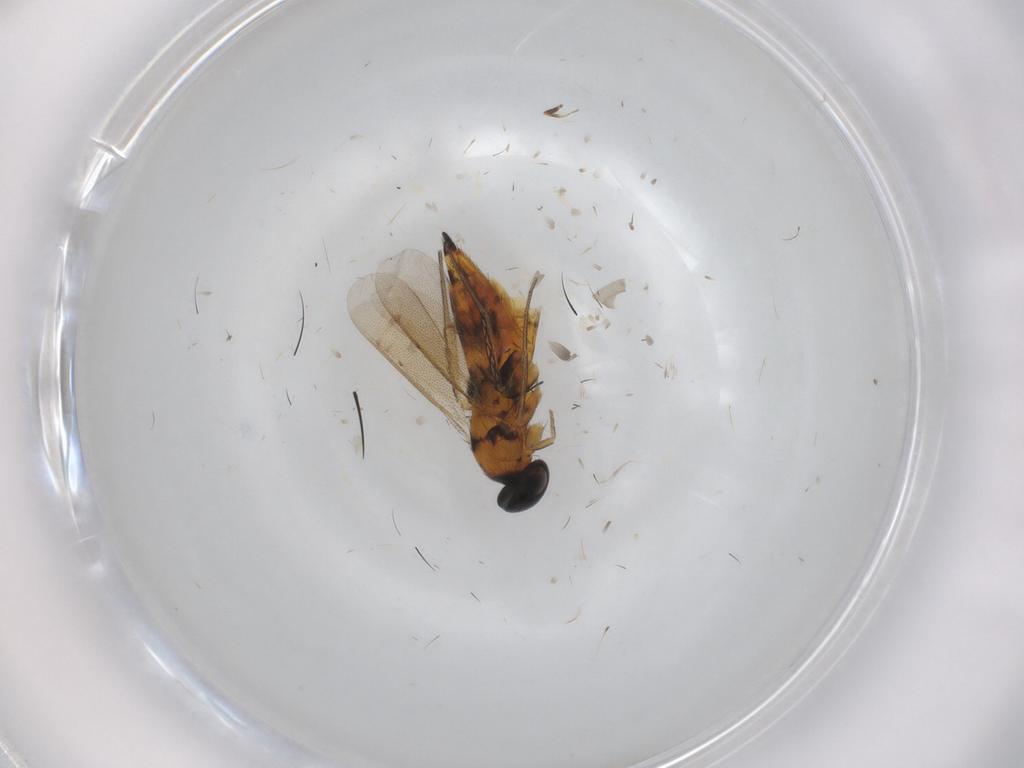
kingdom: Animalia
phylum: Arthropoda
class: Insecta
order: Hymenoptera
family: Eulophidae
